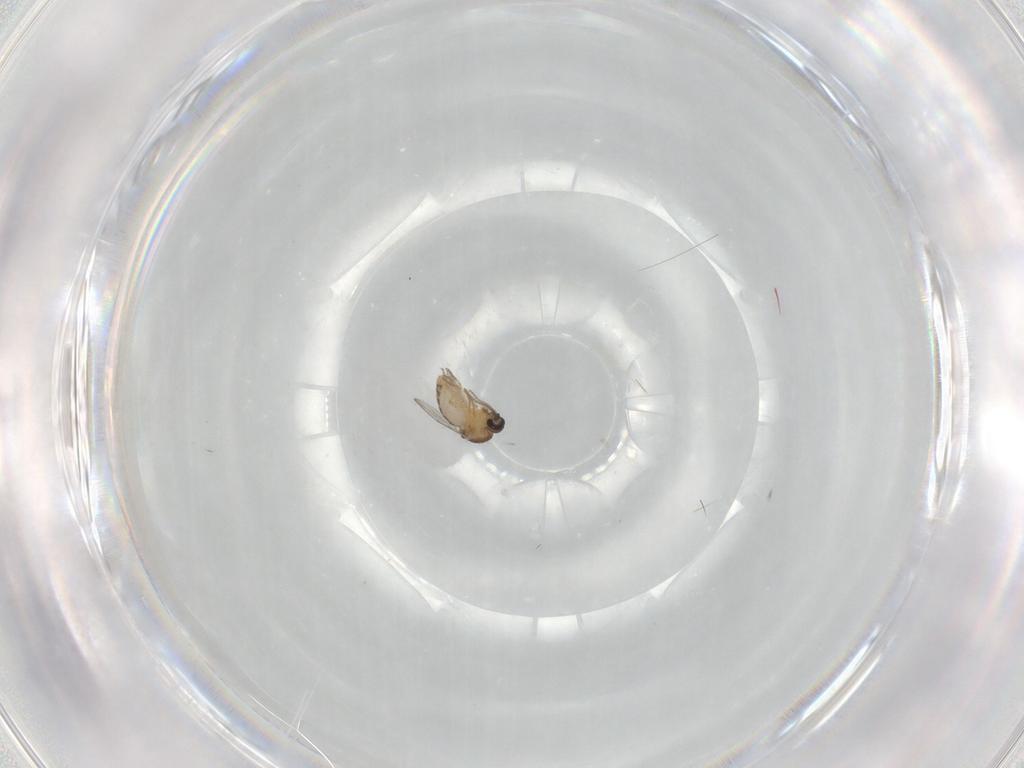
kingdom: Animalia
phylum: Arthropoda
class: Insecta
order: Diptera
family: Ceratopogonidae
